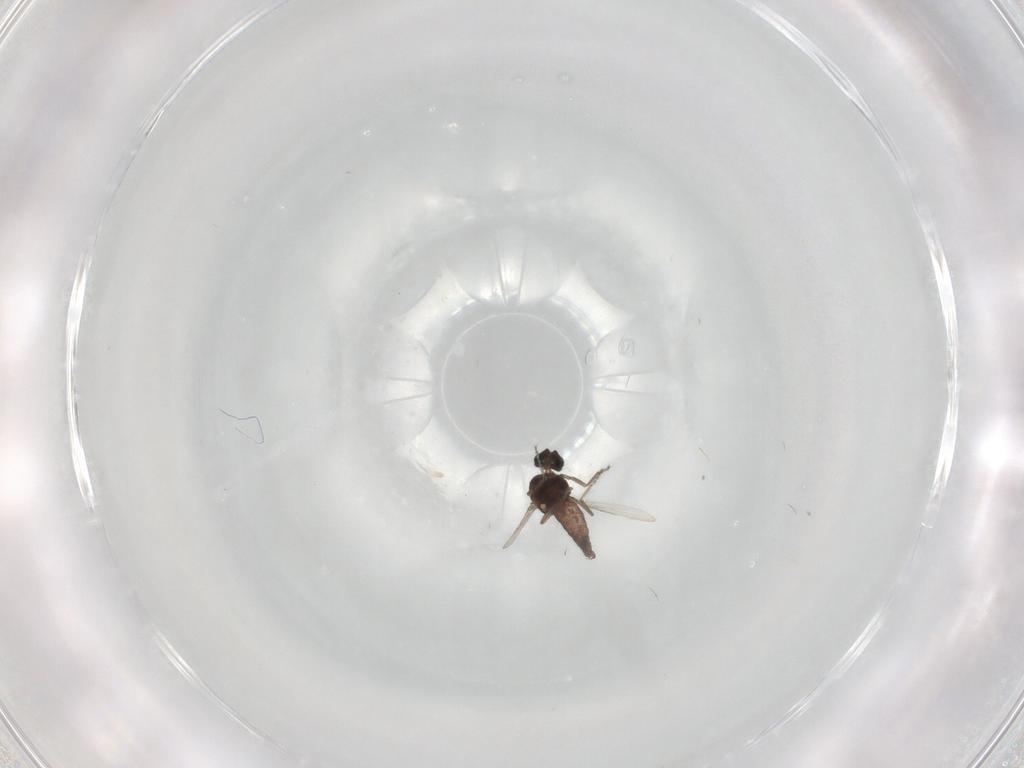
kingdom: Animalia
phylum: Arthropoda
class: Insecta
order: Diptera
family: Ceratopogonidae
